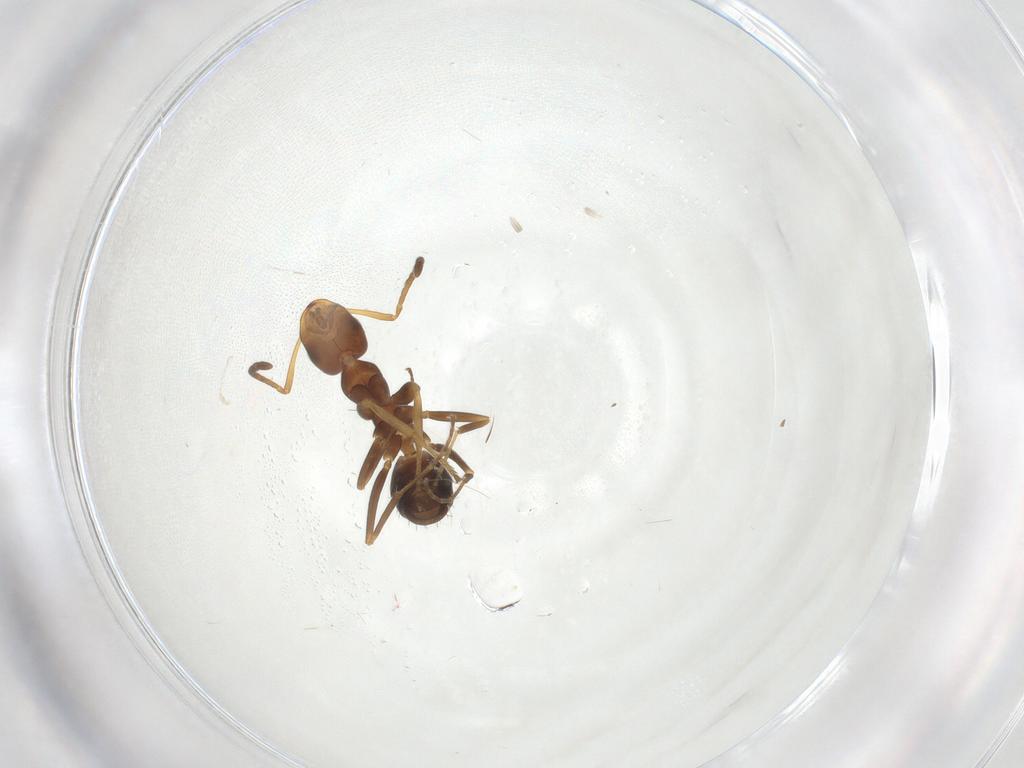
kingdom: Animalia
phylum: Arthropoda
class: Insecta
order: Hymenoptera
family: Formicidae
